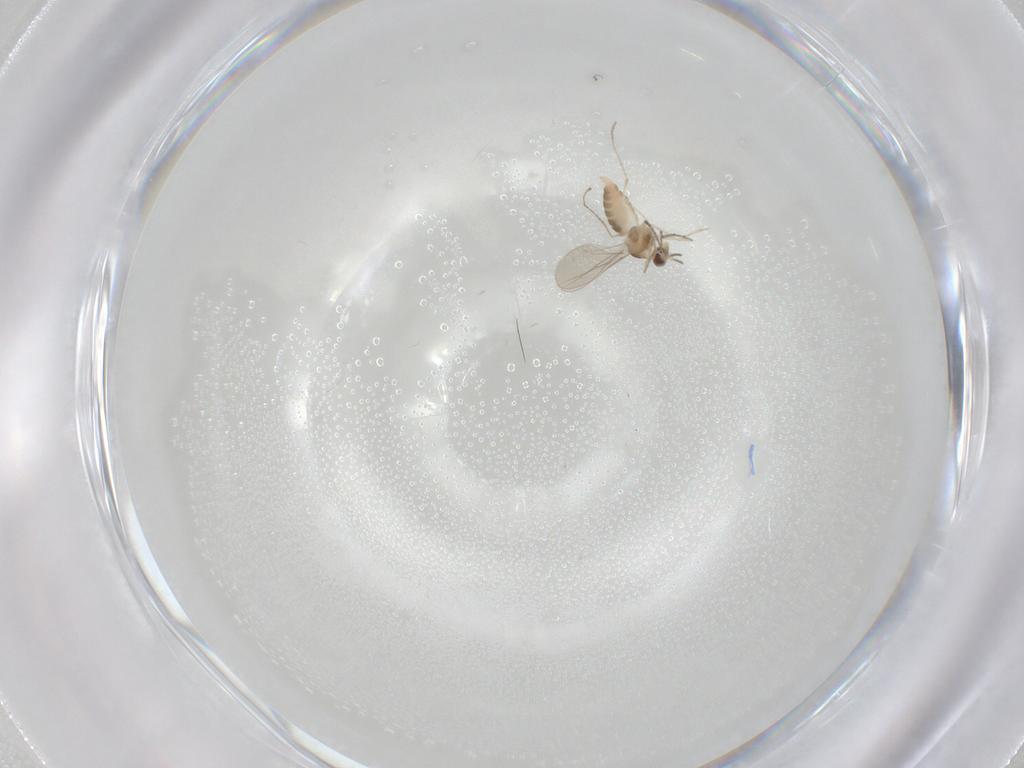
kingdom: Animalia
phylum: Arthropoda
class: Insecta
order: Diptera
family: Cecidomyiidae
